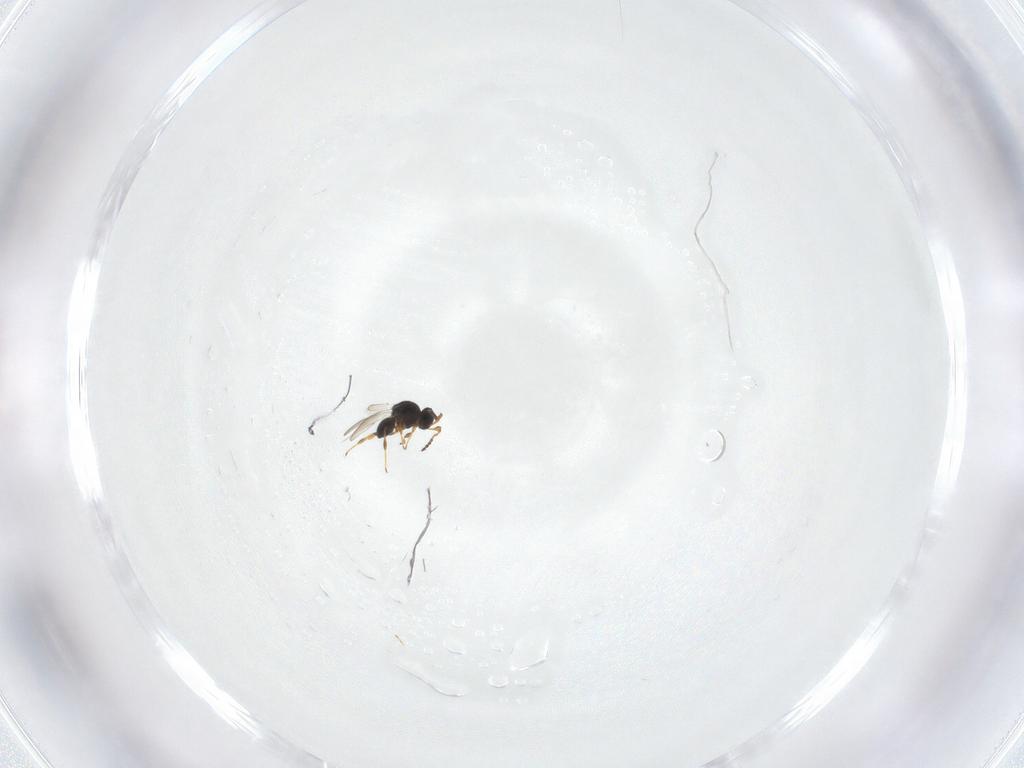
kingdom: Animalia
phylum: Arthropoda
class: Insecta
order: Hymenoptera
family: Platygastridae
